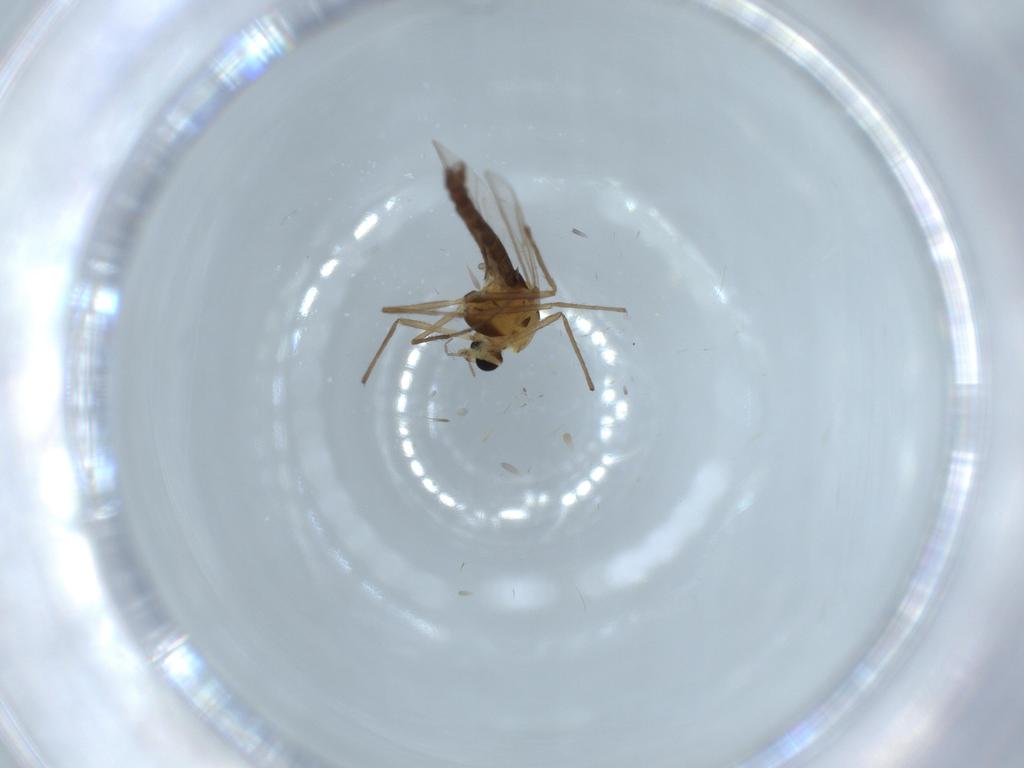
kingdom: Animalia
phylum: Arthropoda
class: Insecta
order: Diptera
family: Chironomidae
